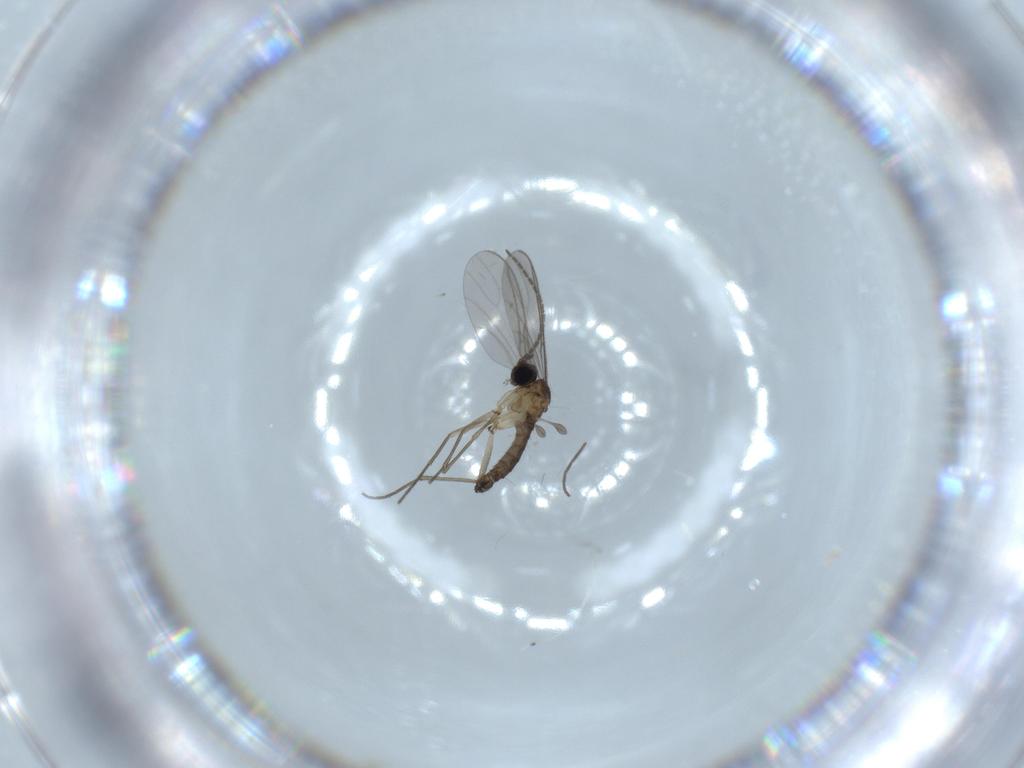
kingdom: Animalia
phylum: Arthropoda
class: Insecta
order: Diptera
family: Sciaridae
